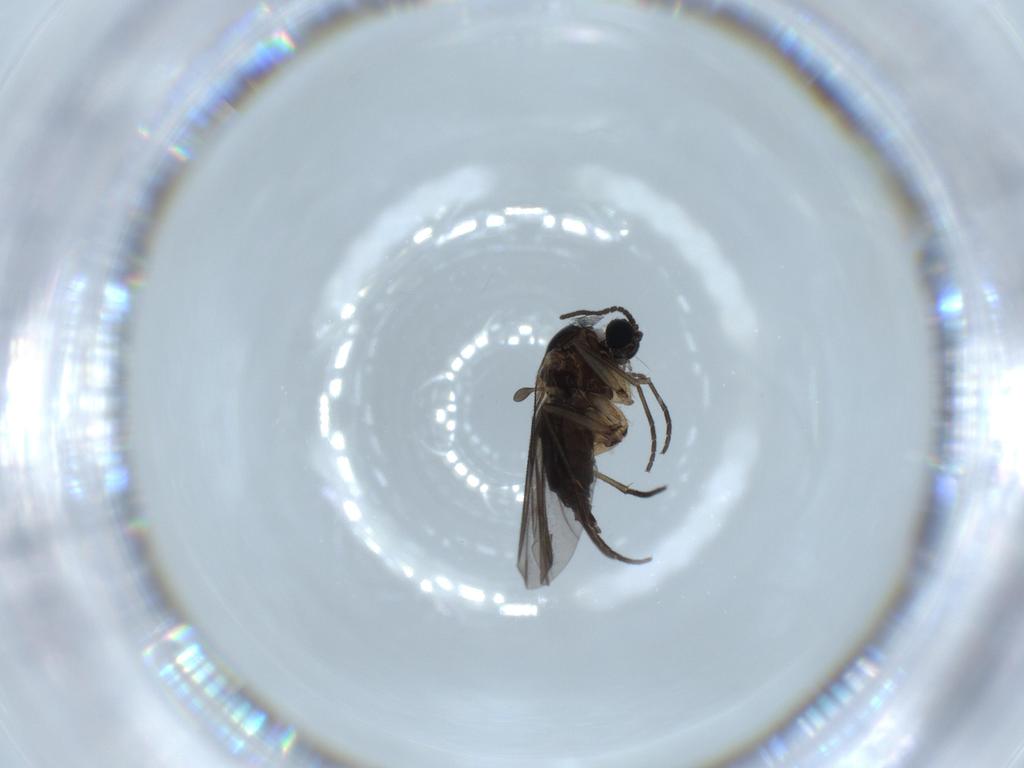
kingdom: Animalia
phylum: Arthropoda
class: Insecta
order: Diptera
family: Sciaridae
